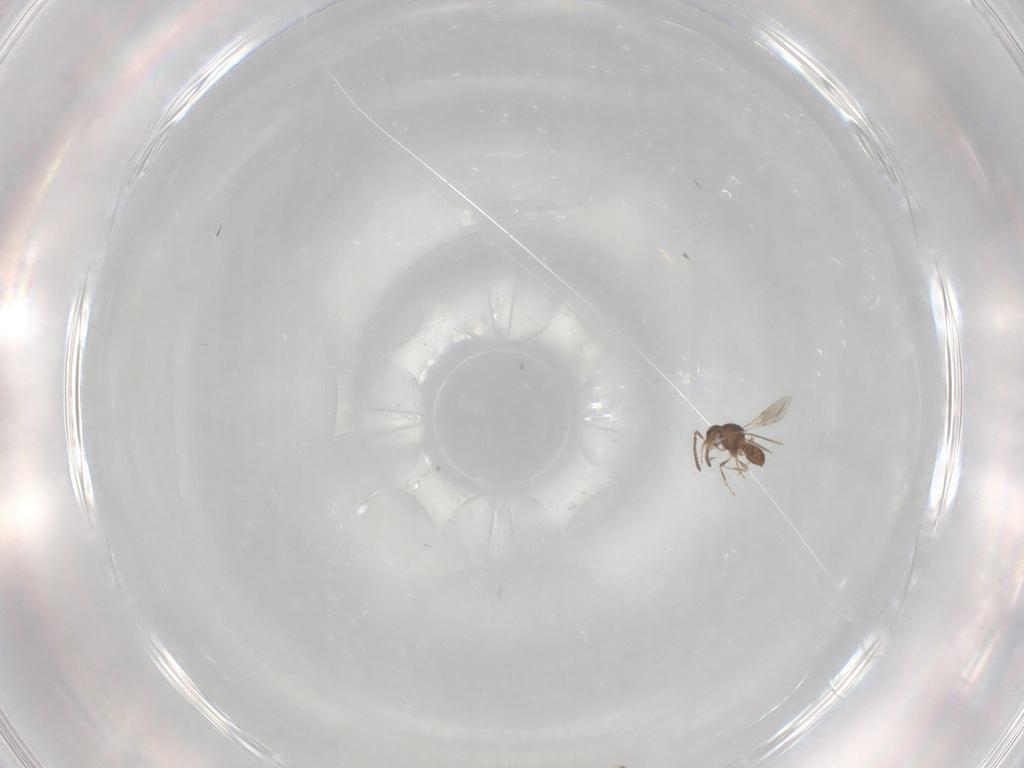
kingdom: Animalia
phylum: Arthropoda
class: Insecta
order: Hymenoptera
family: Scelionidae
